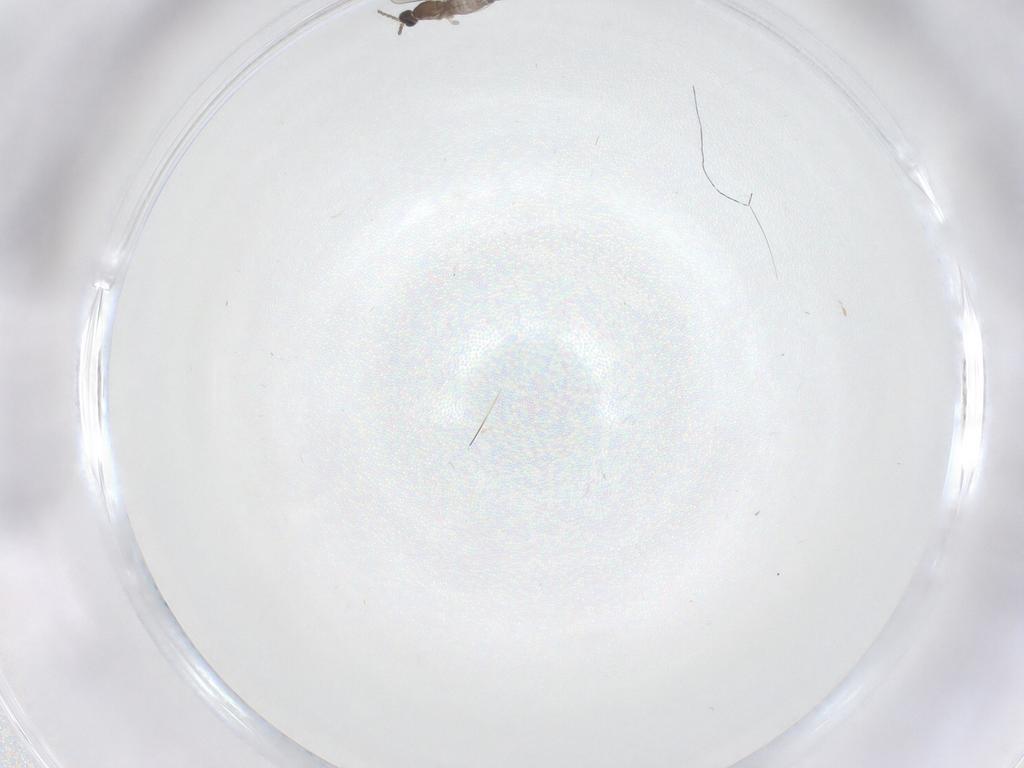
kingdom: Animalia
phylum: Arthropoda
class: Insecta
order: Diptera
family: Cecidomyiidae
